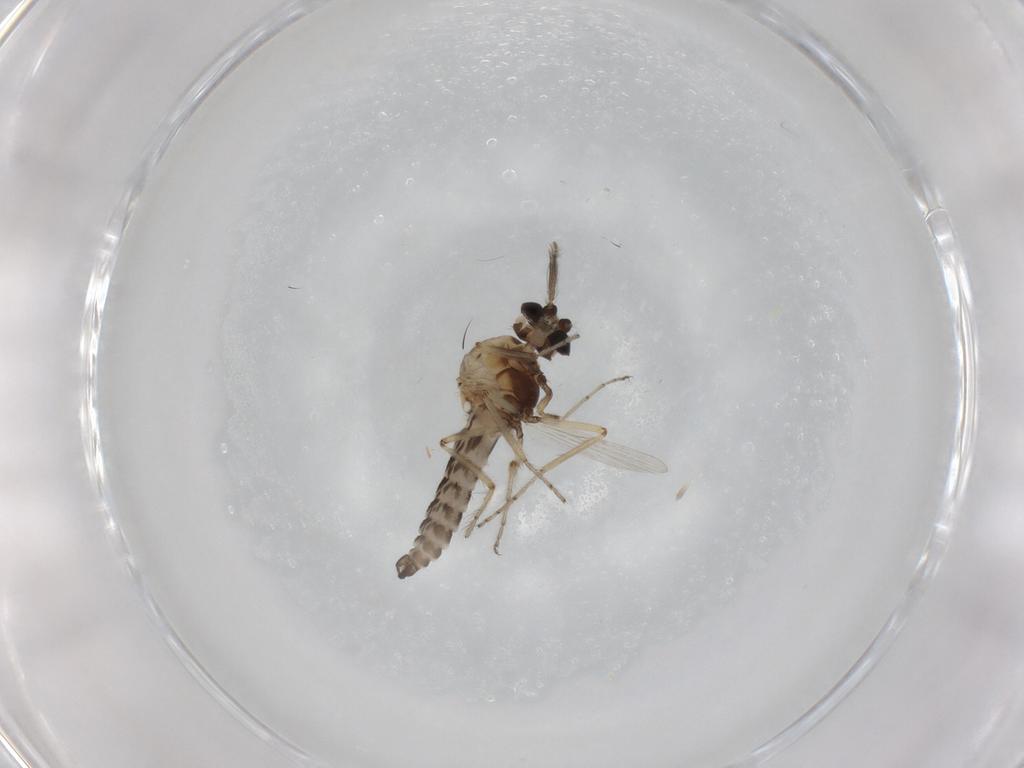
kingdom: Animalia
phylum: Arthropoda
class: Insecta
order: Diptera
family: Ceratopogonidae
